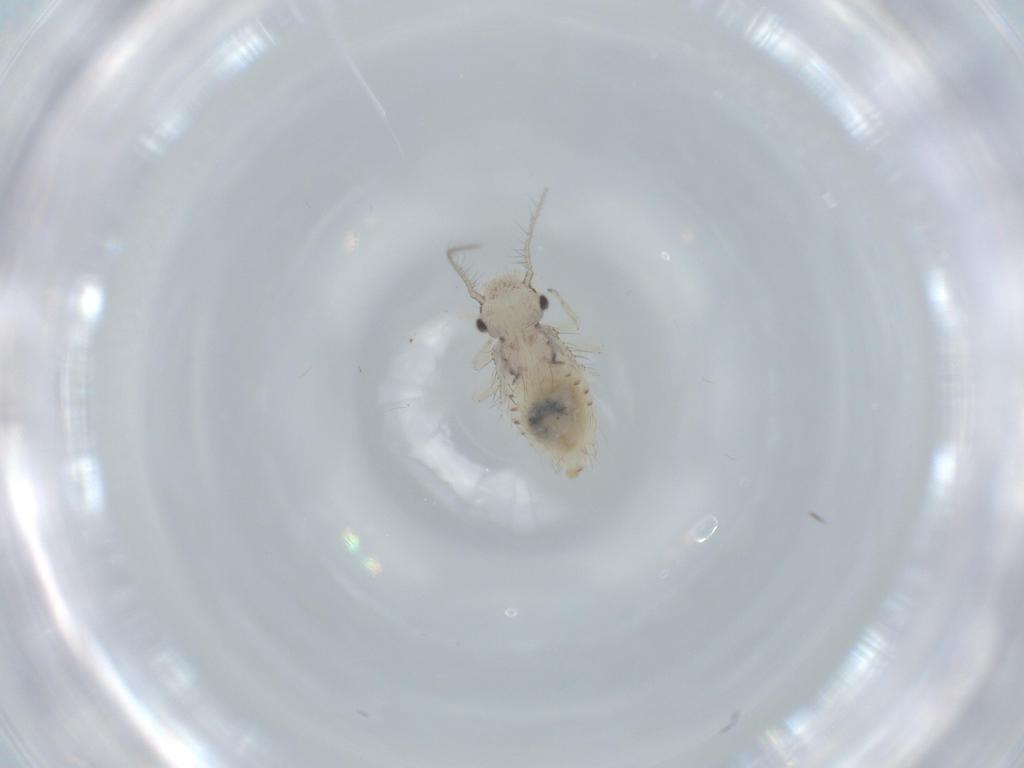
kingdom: Animalia
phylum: Arthropoda
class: Insecta
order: Psocodea
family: Pseudocaeciliidae
